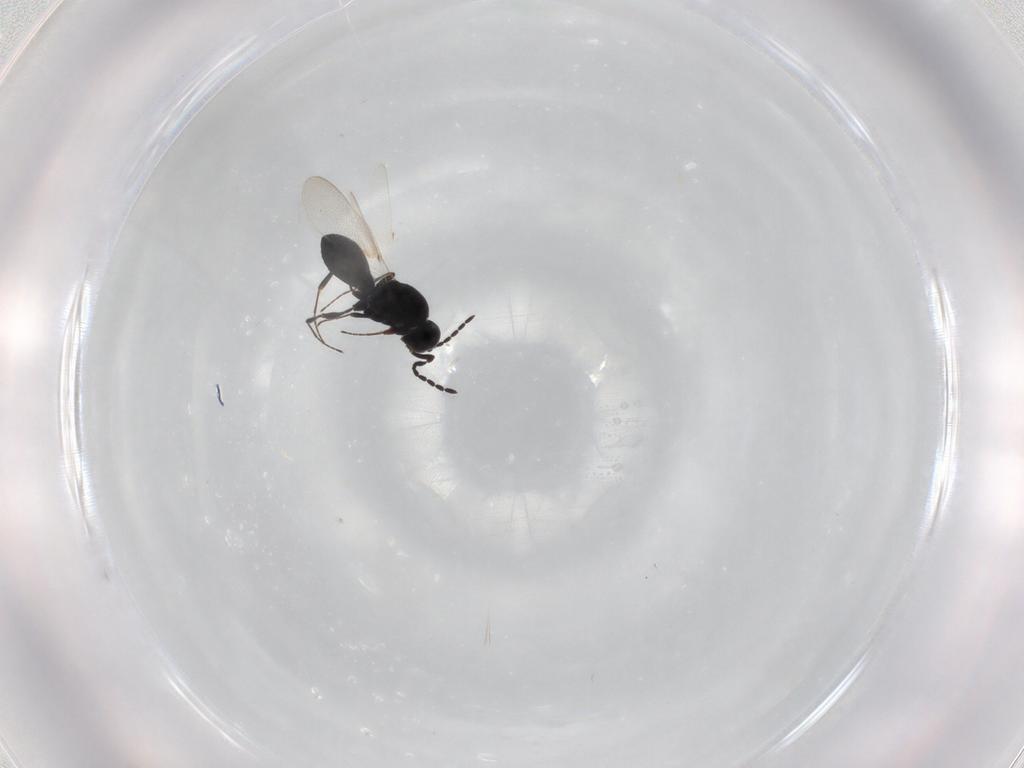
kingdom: Animalia
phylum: Arthropoda
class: Insecta
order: Hymenoptera
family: Platygastridae
